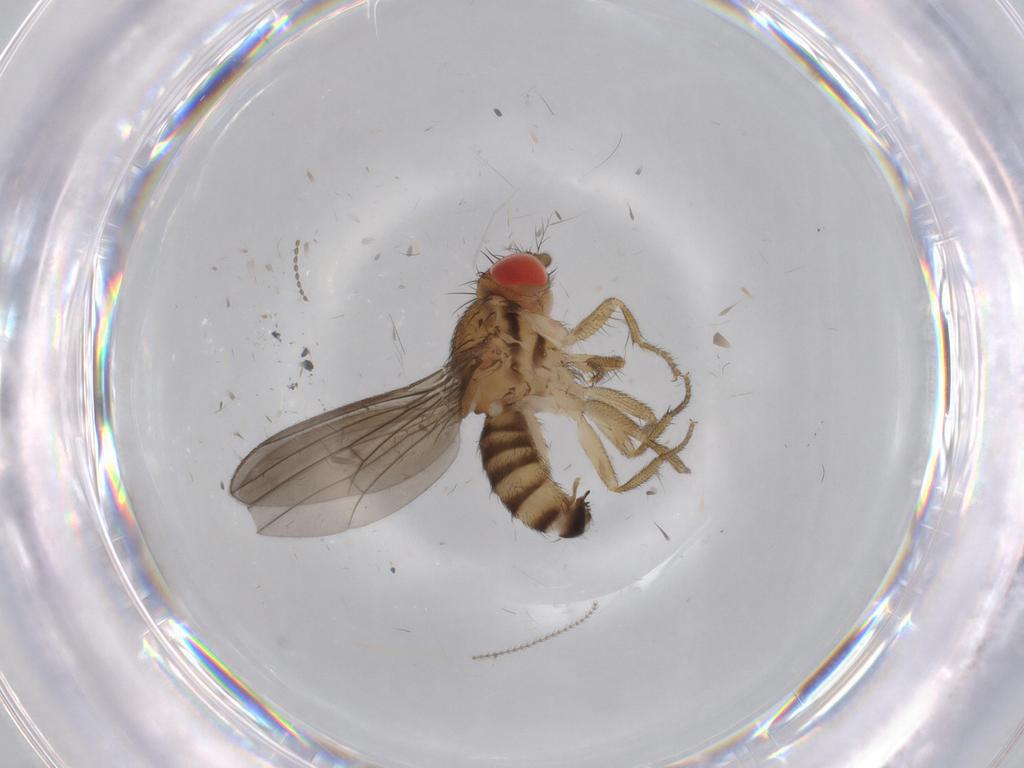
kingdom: Animalia
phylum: Arthropoda
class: Insecta
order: Diptera
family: Drosophilidae
